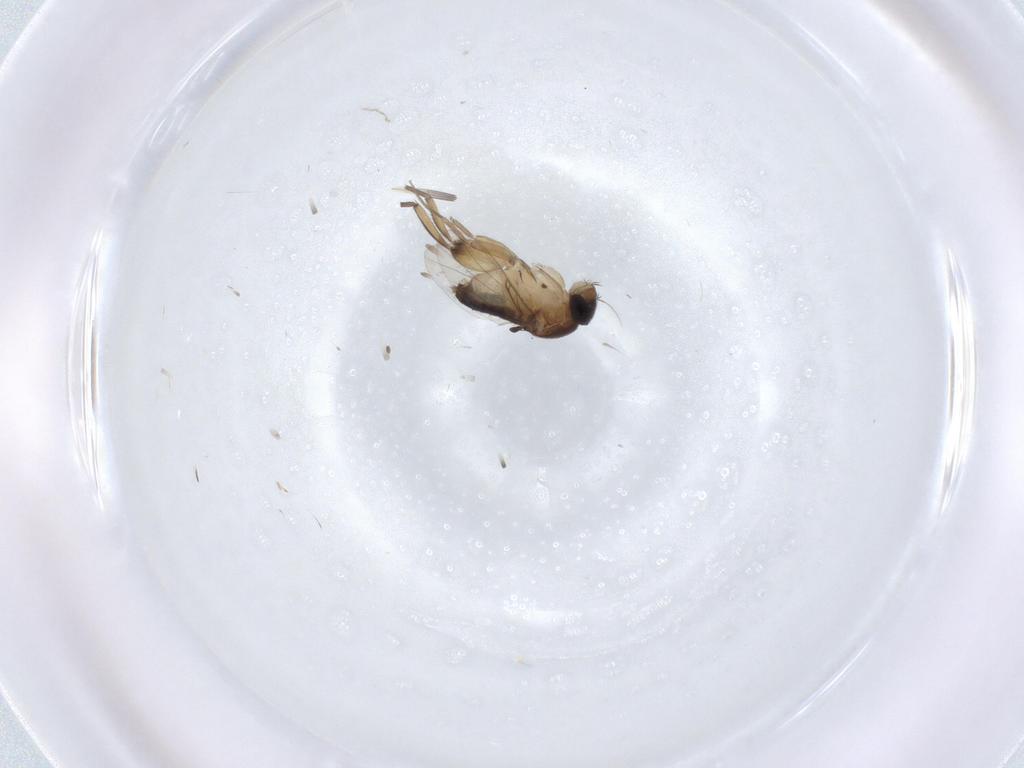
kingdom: Animalia
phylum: Arthropoda
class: Insecta
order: Diptera
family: Phoridae
